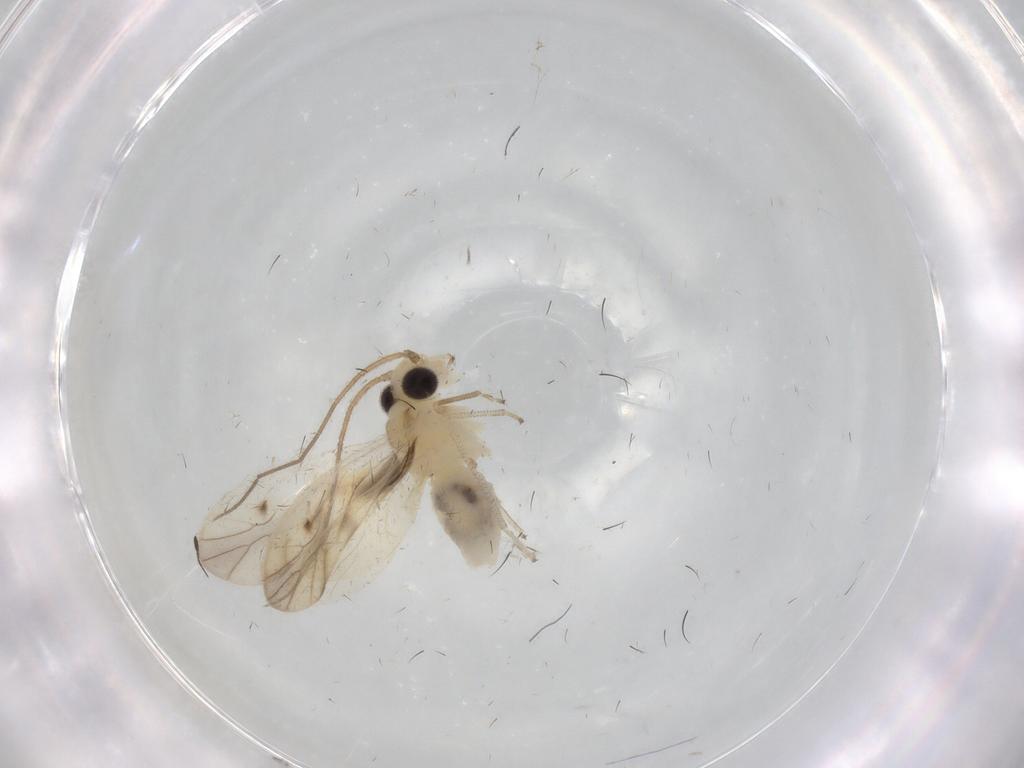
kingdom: Animalia
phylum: Arthropoda
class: Insecta
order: Psocodea
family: Caeciliusidae
